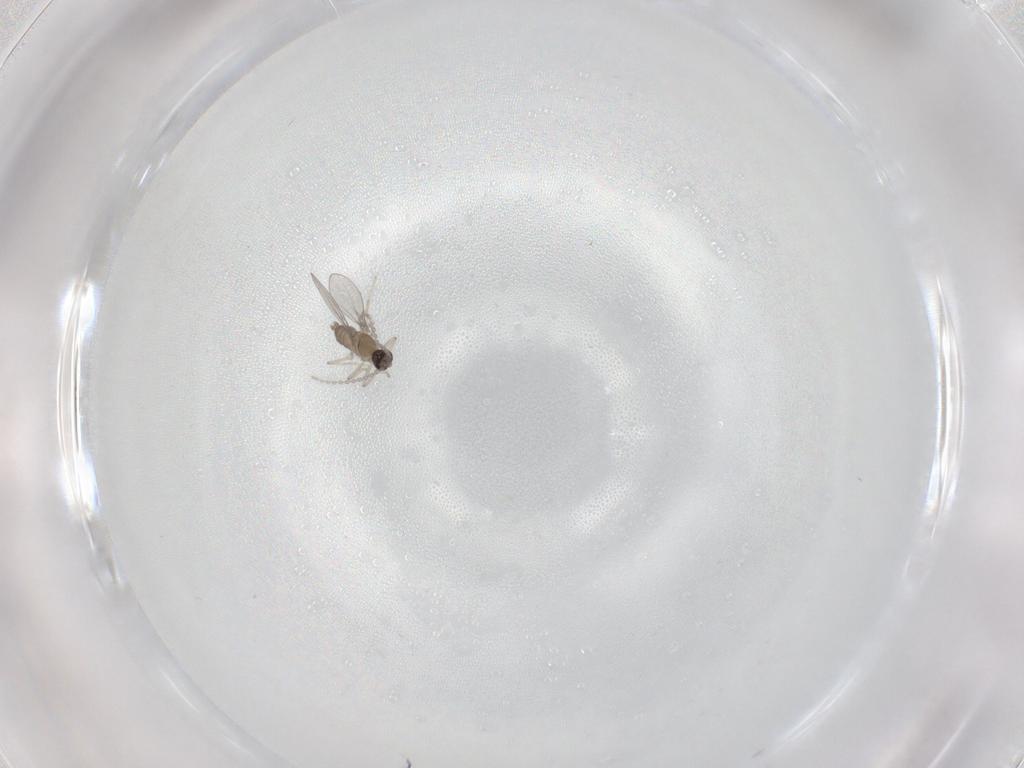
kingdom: Animalia
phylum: Arthropoda
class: Insecta
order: Diptera
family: Cecidomyiidae
